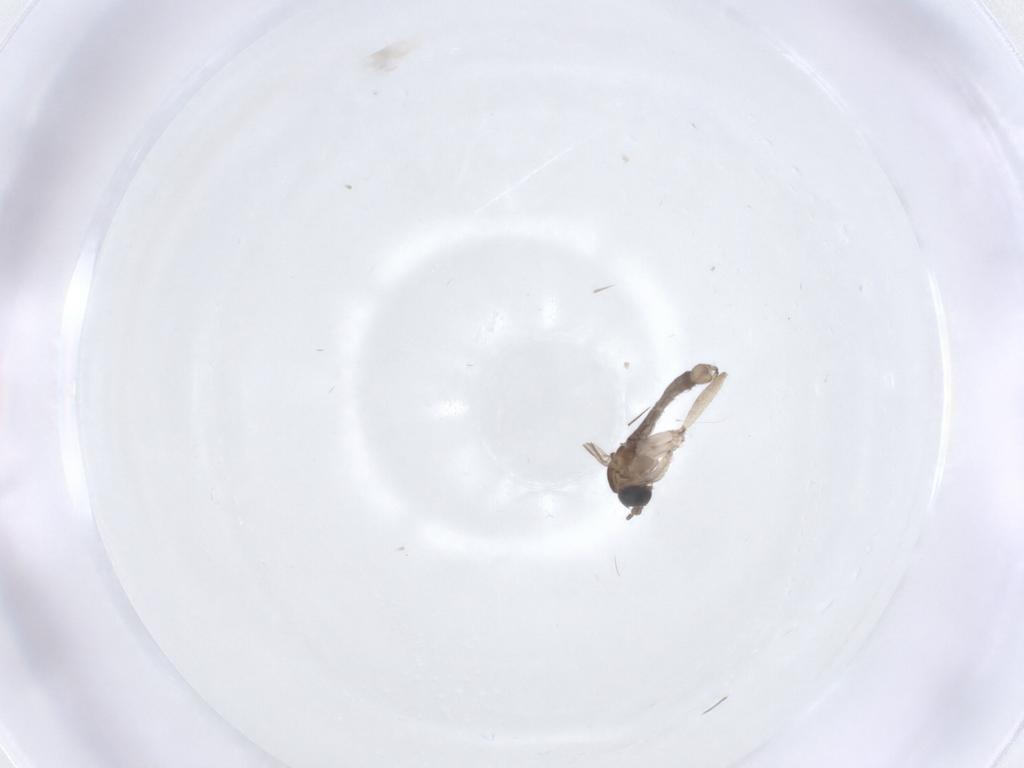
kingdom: Animalia
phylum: Arthropoda
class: Insecta
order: Diptera
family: Sciaridae
